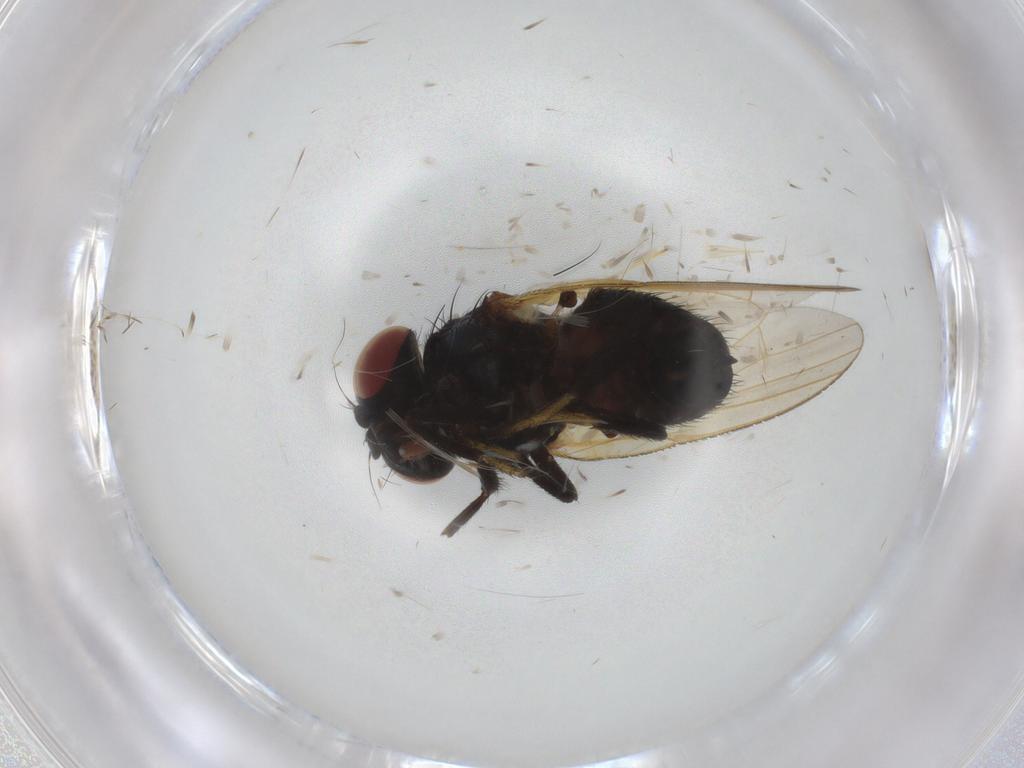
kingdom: Animalia
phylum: Arthropoda
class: Insecta
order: Diptera
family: Lonchaeidae
